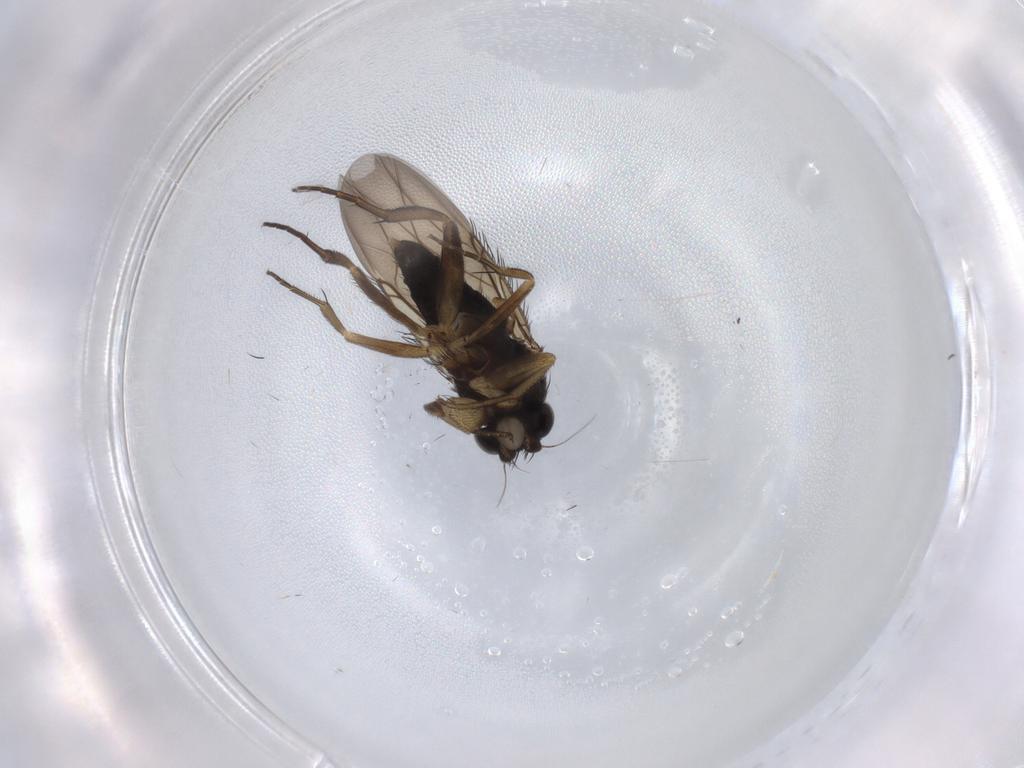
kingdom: Animalia
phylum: Arthropoda
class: Insecta
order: Diptera
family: Phoridae
